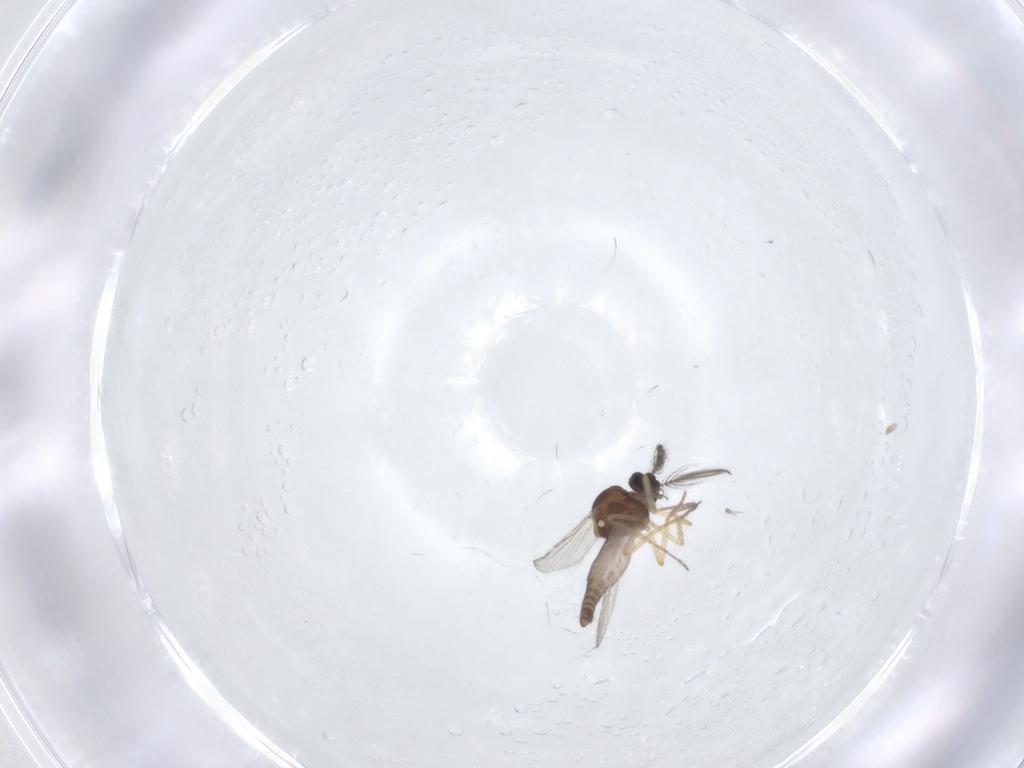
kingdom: Animalia
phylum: Arthropoda
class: Insecta
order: Diptera
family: Ceratopogonidae
